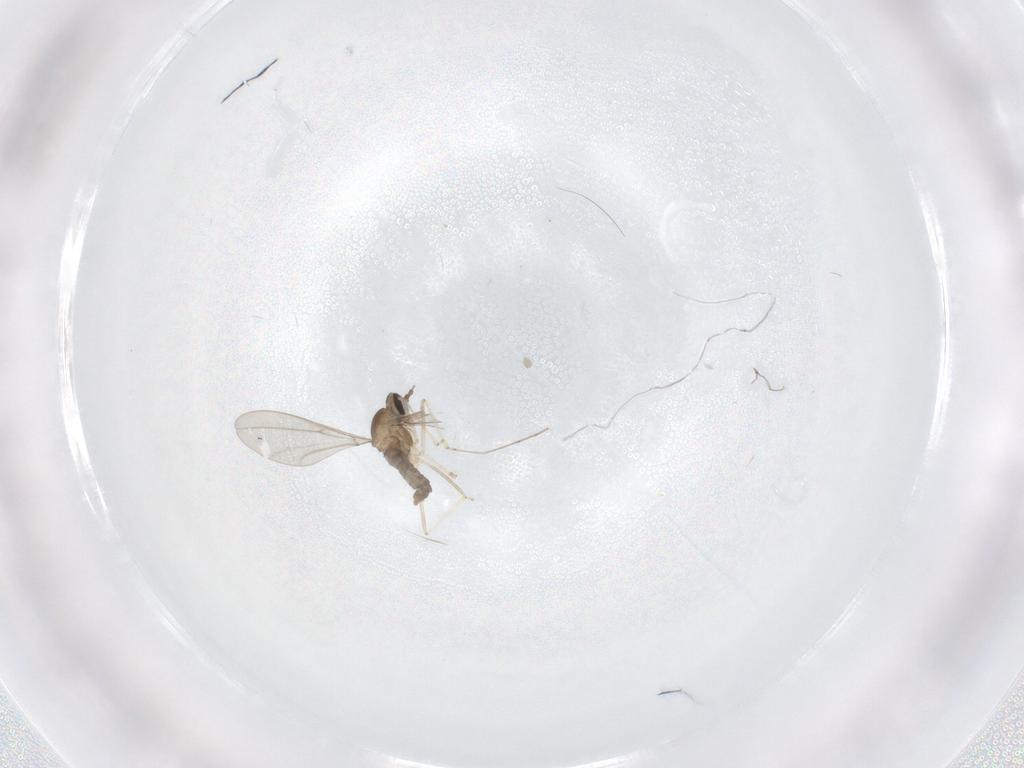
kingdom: Animalia
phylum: Arthropoda
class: Insecta
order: Diptera
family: Cecidomyiidae
